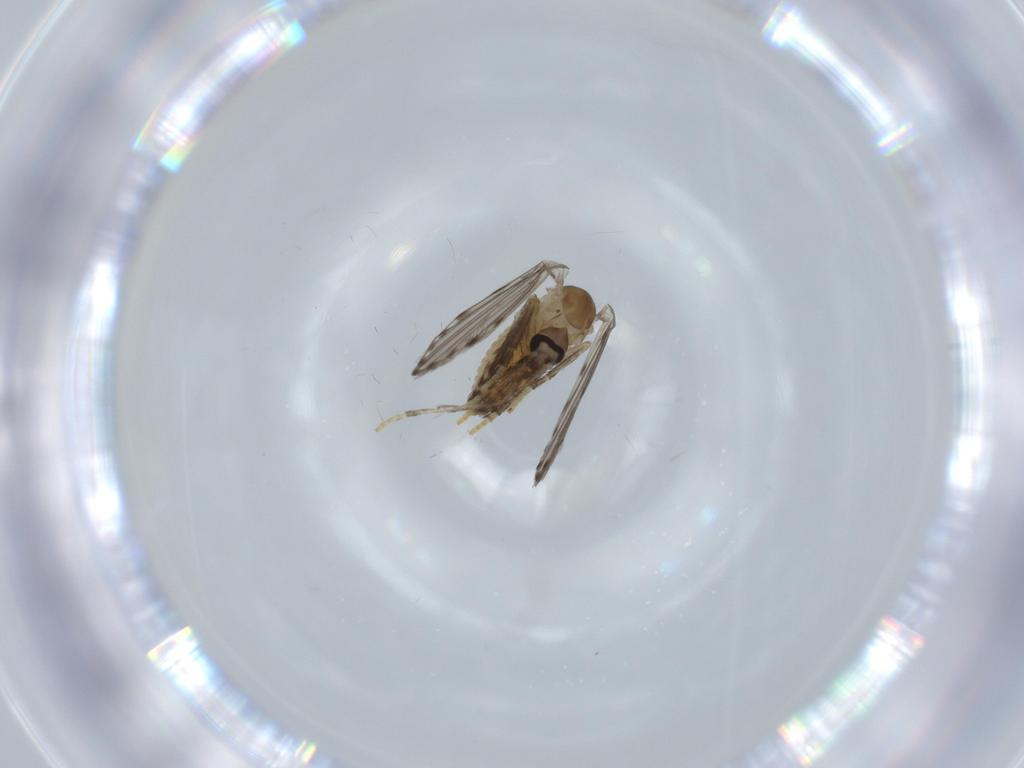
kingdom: Animalia
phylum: Arthropoda
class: Insecta
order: Diptera
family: Psychodidae
